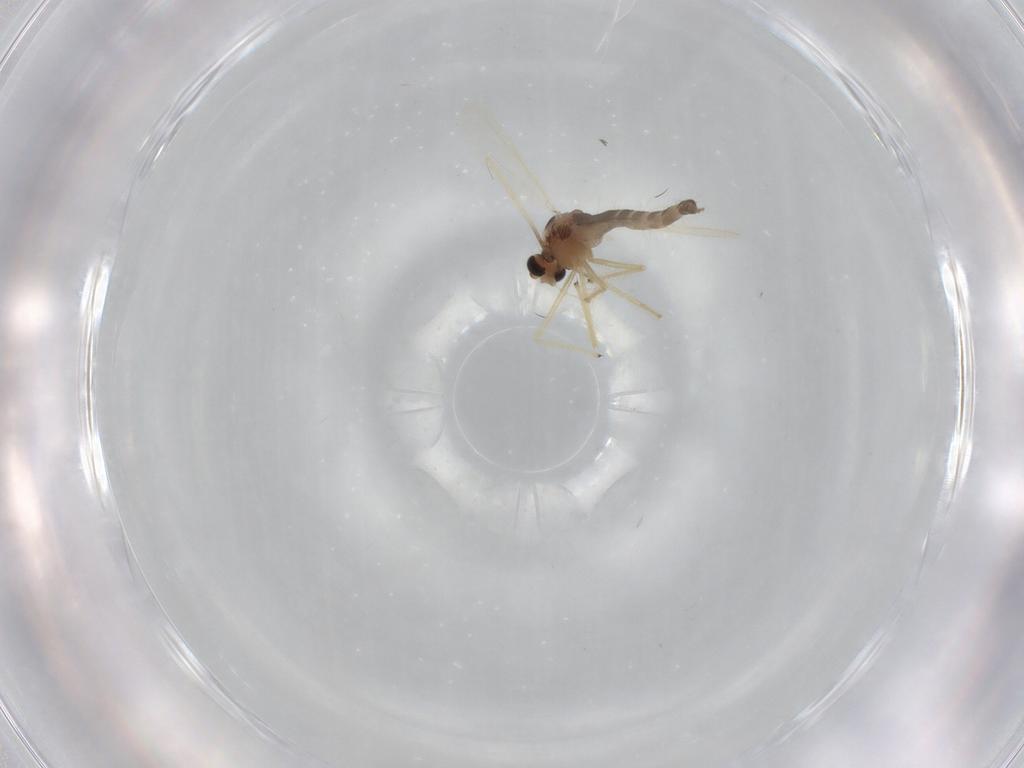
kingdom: Animalia
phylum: Arthropoda
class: Insecta
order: Diptera
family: Chironomidae
